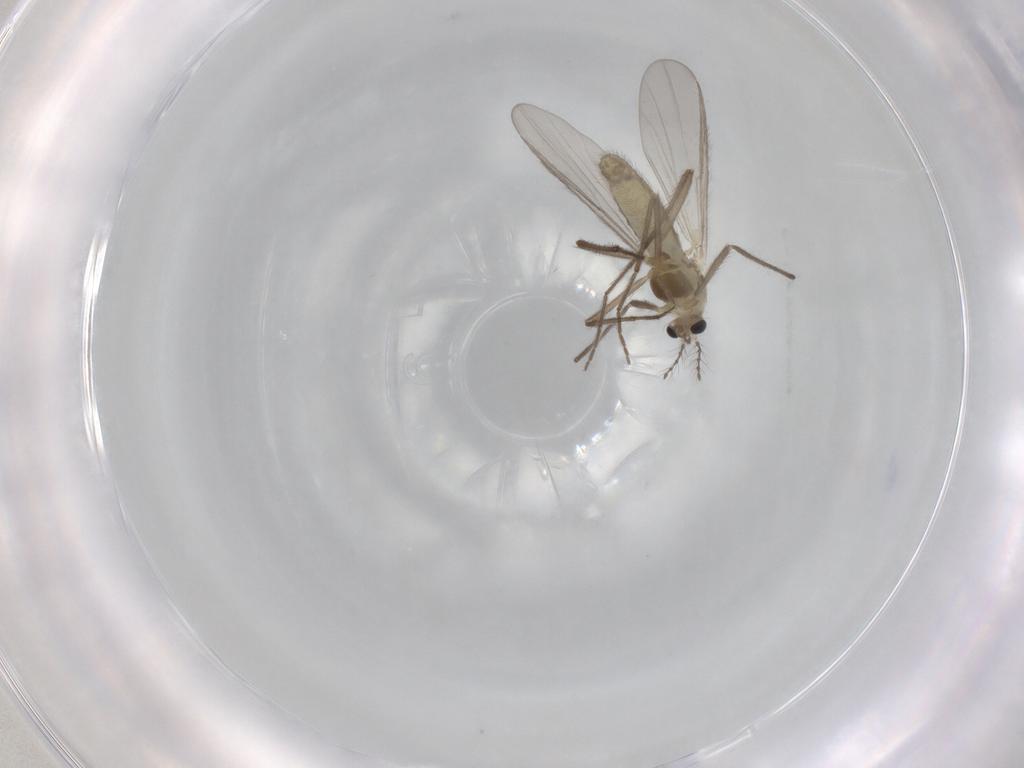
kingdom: Animalia
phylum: Arthropoda
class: Insecta
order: Diptera
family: Chironomidae
